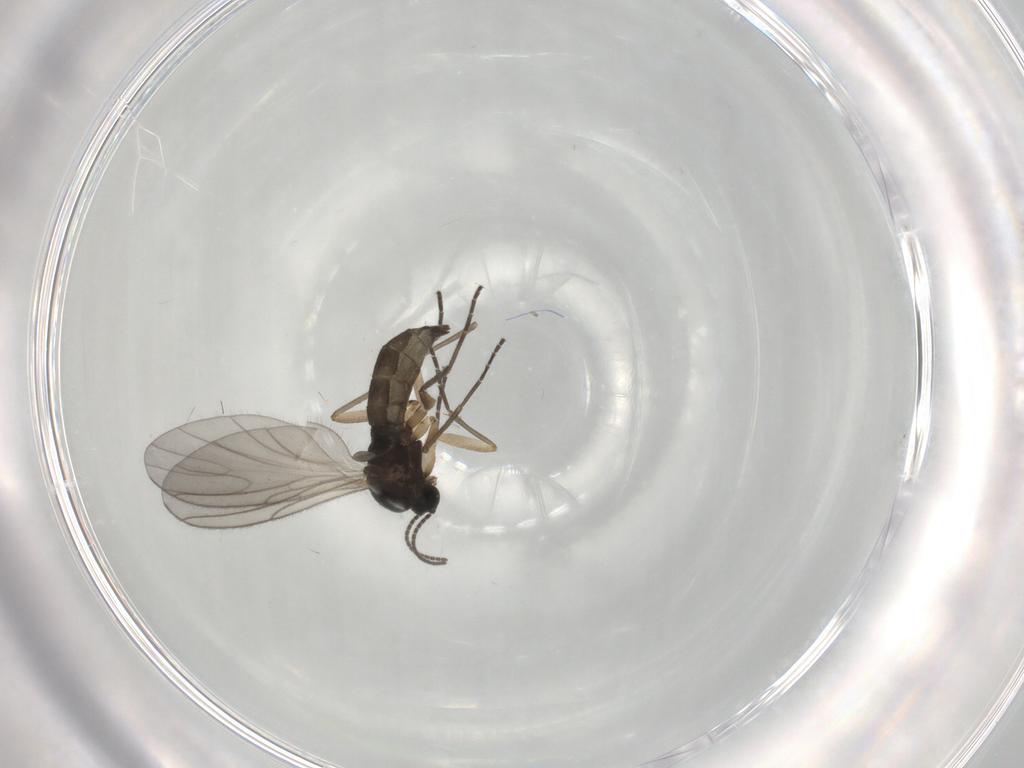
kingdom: Animalia
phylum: Arthropoda
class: Insecta
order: Diptera
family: Sciaridae
